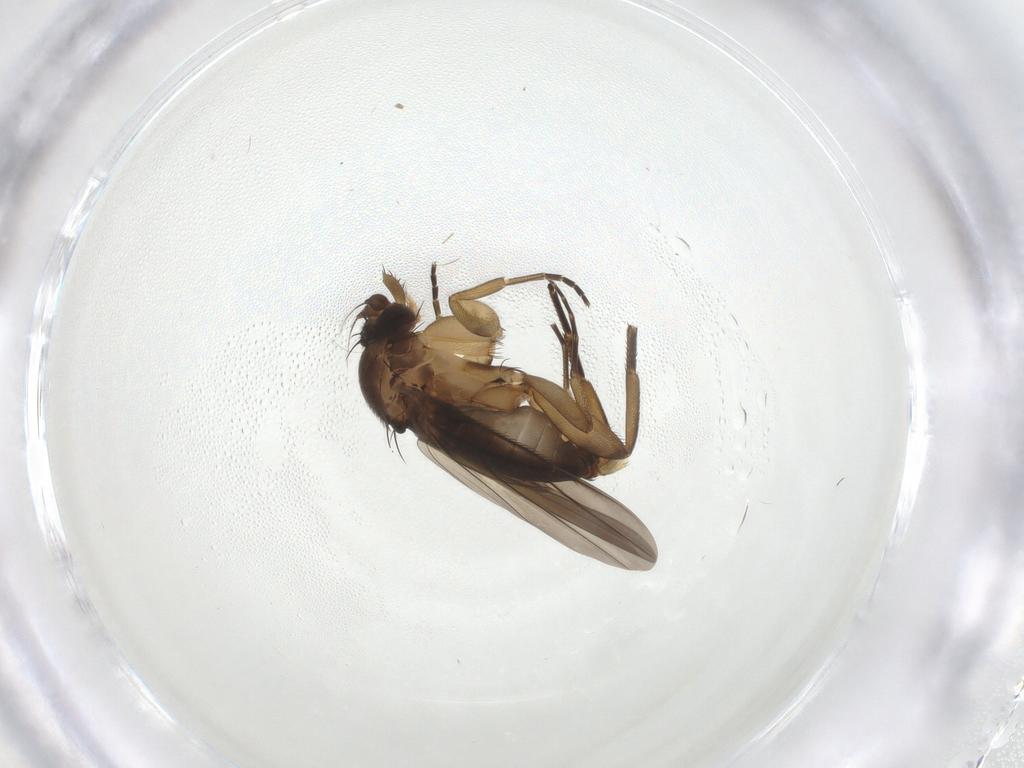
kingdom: Animalia
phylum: Arthropoda
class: Insecta
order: Diptera
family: Phoridae
